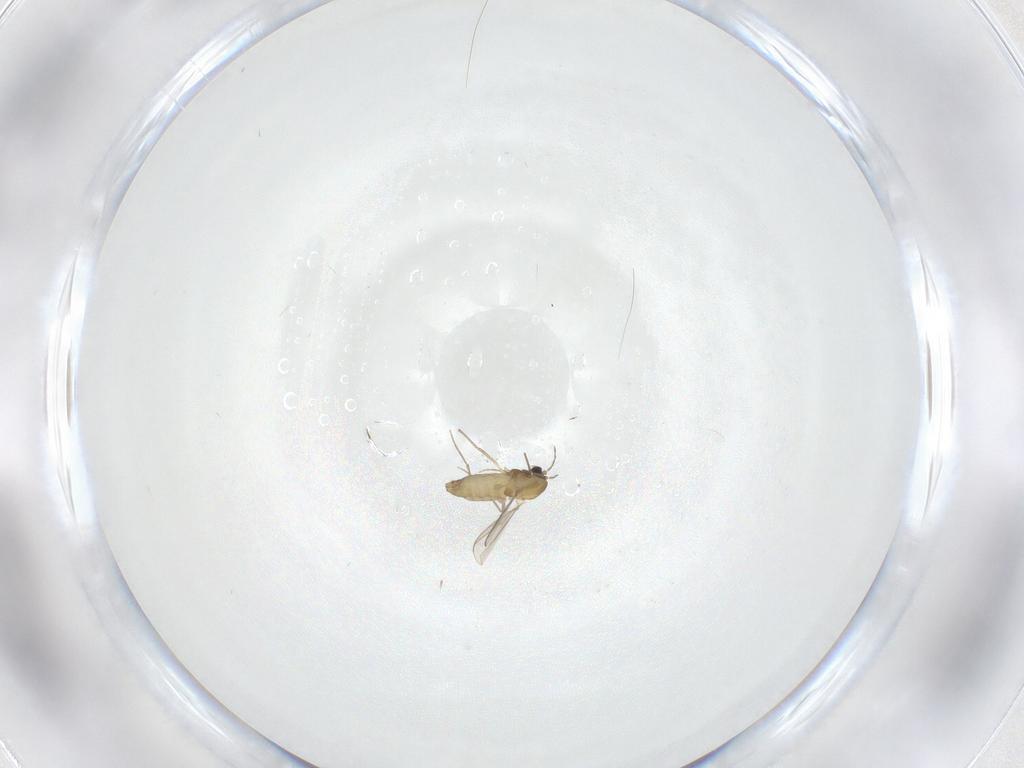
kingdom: Animalia
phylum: Arthropoda
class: Insecta
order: Diptera
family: Chironomidae
